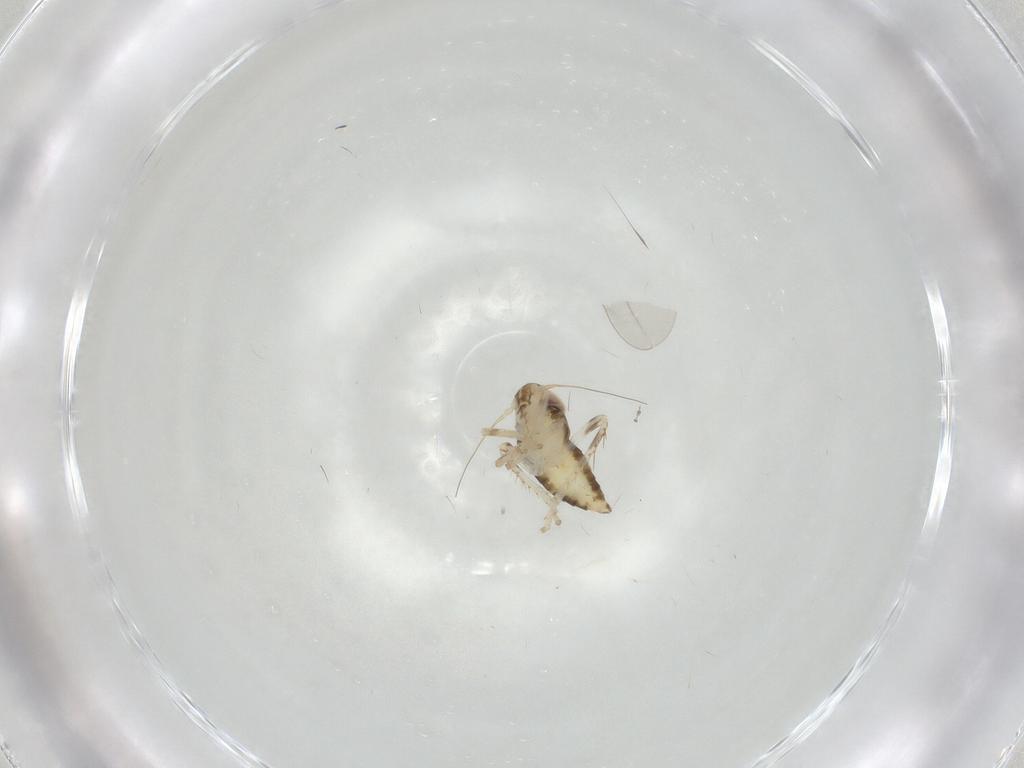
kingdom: Animalia
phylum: Arthropoda
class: Insecta
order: Hemiptera
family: Cicadellidae
